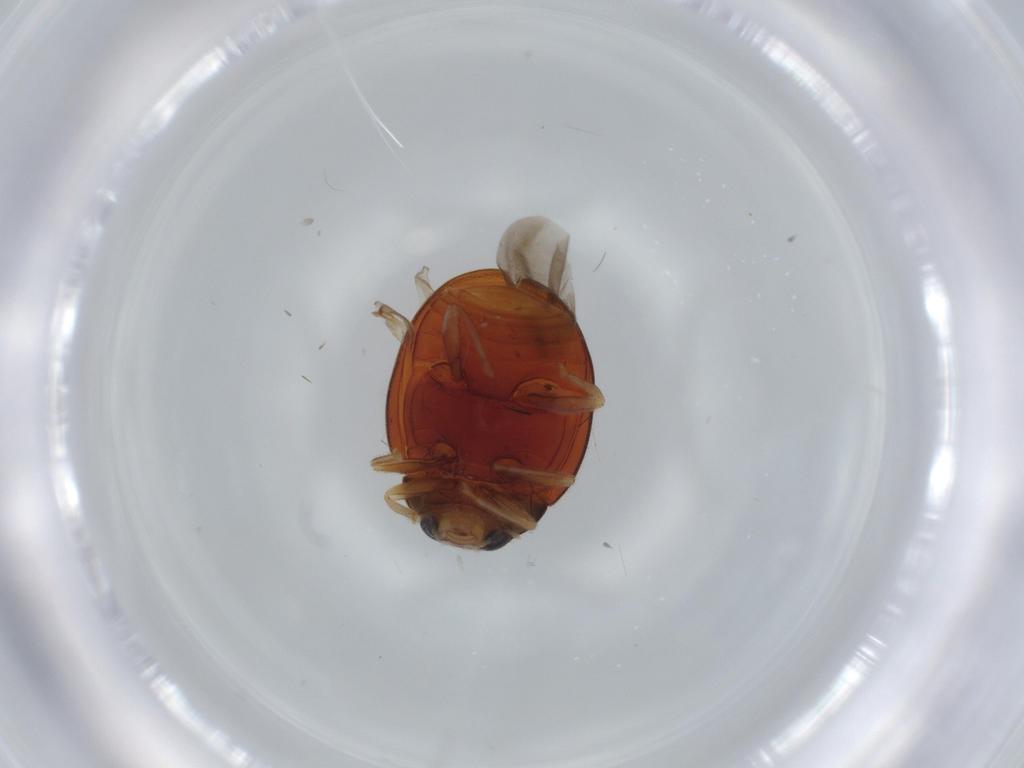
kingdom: Animalia
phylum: Arthropoda
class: Insecta
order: Coleoptera
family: Coccinellidae
